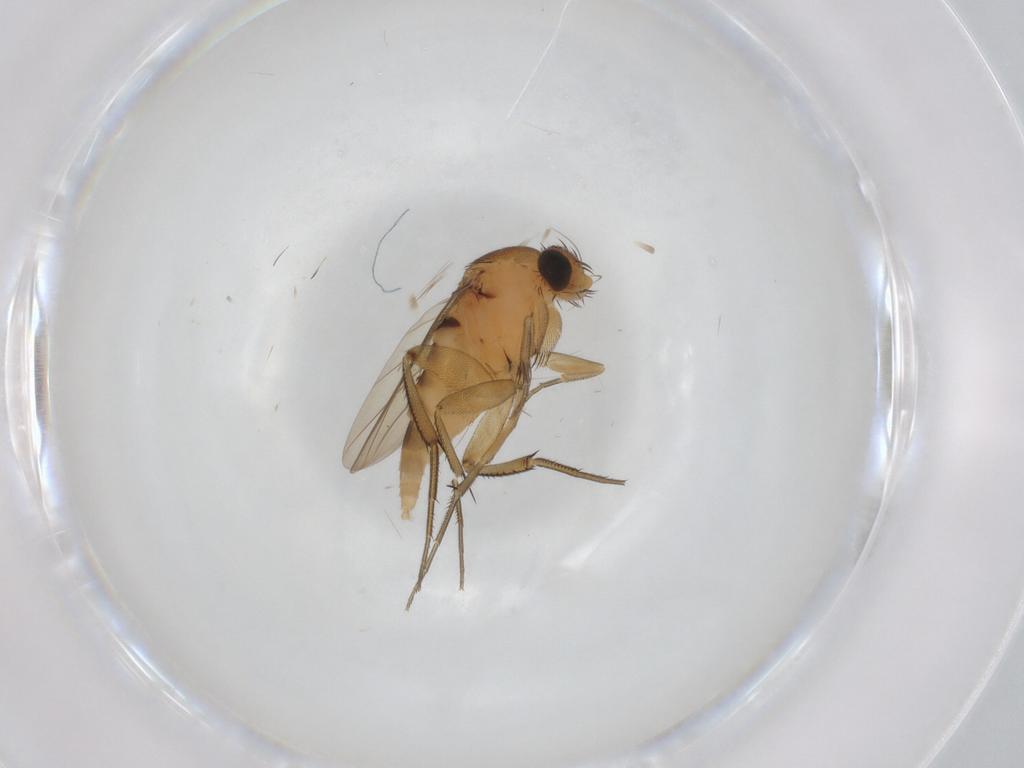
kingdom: Animalia
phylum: Arthropoda
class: Insecta
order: Diptera
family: Phoridae
